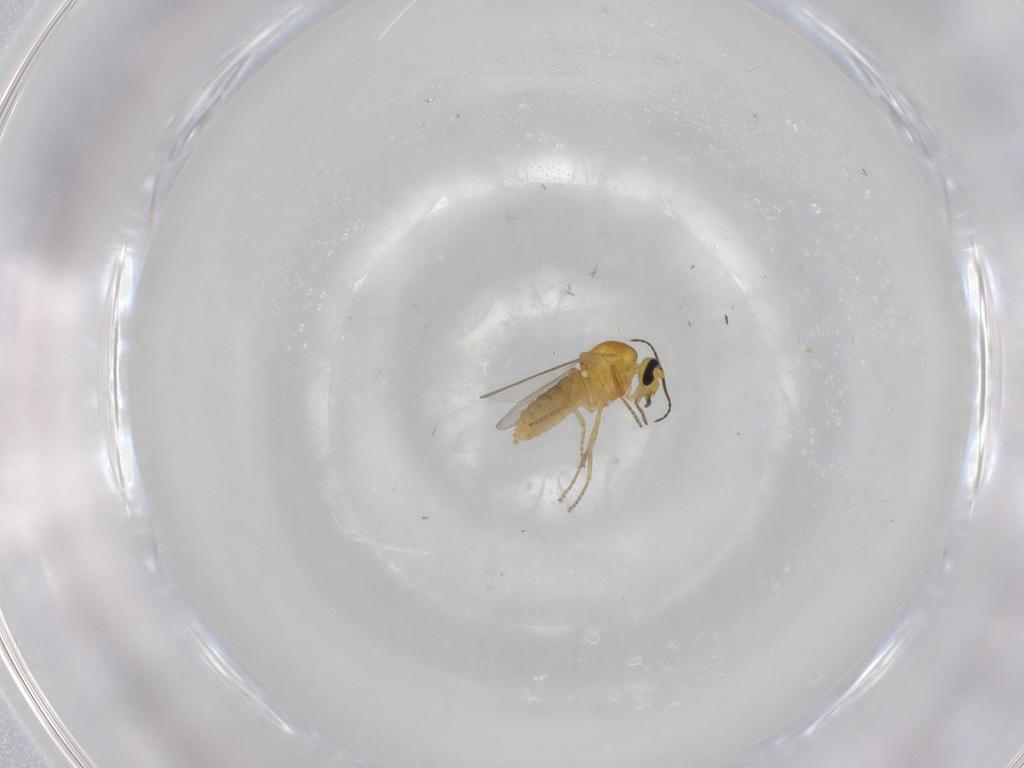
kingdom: Animalia
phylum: Arthropoda
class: Insecta
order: Diptera
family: Ceratopogonidae
